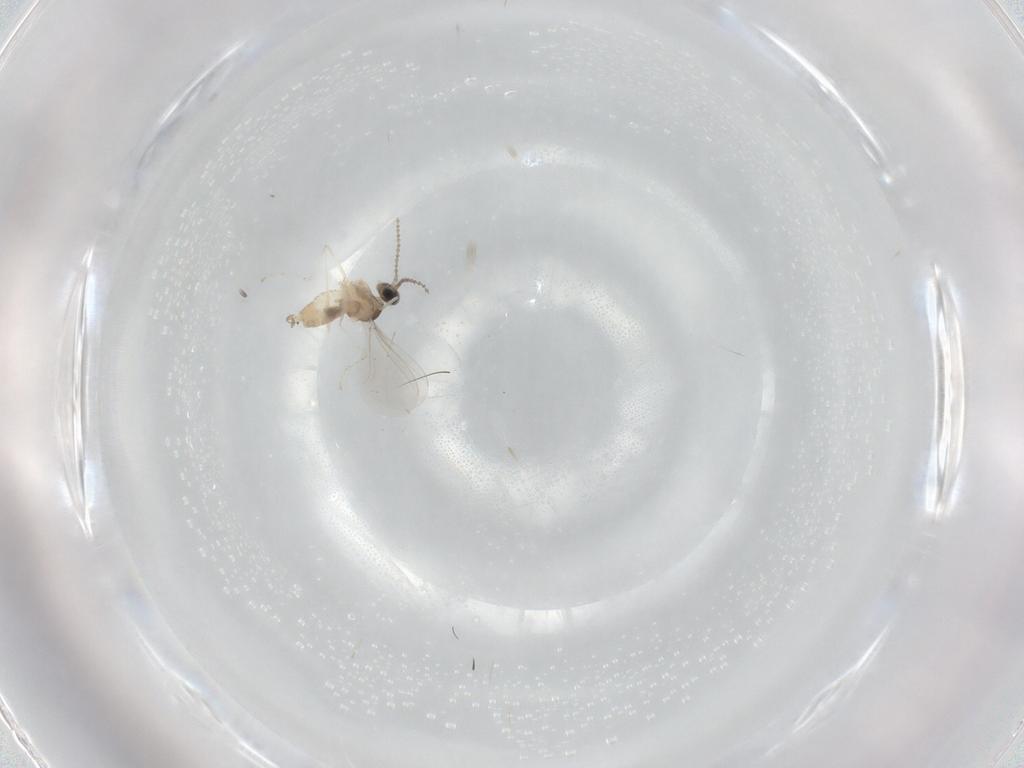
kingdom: Animalia
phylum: Arthropoda
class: Insecta
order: Diptera
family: Cecidomyiidae
